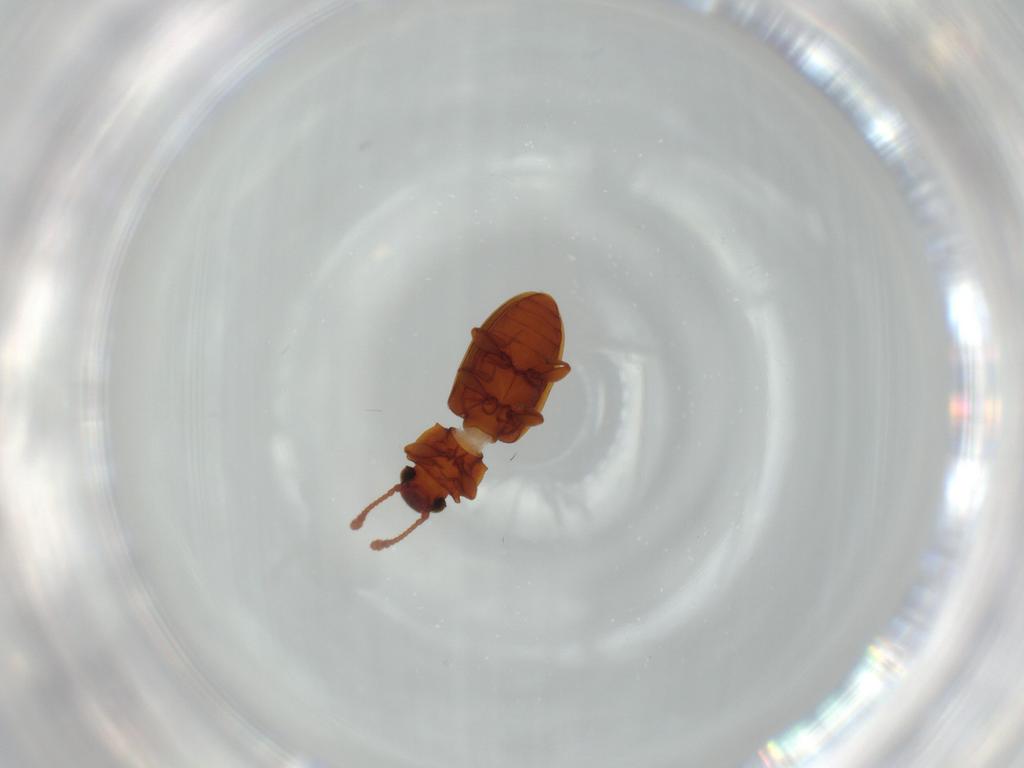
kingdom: Animalia
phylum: Arthropoda
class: Insecta
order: Coleoptera
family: Silvanidae
